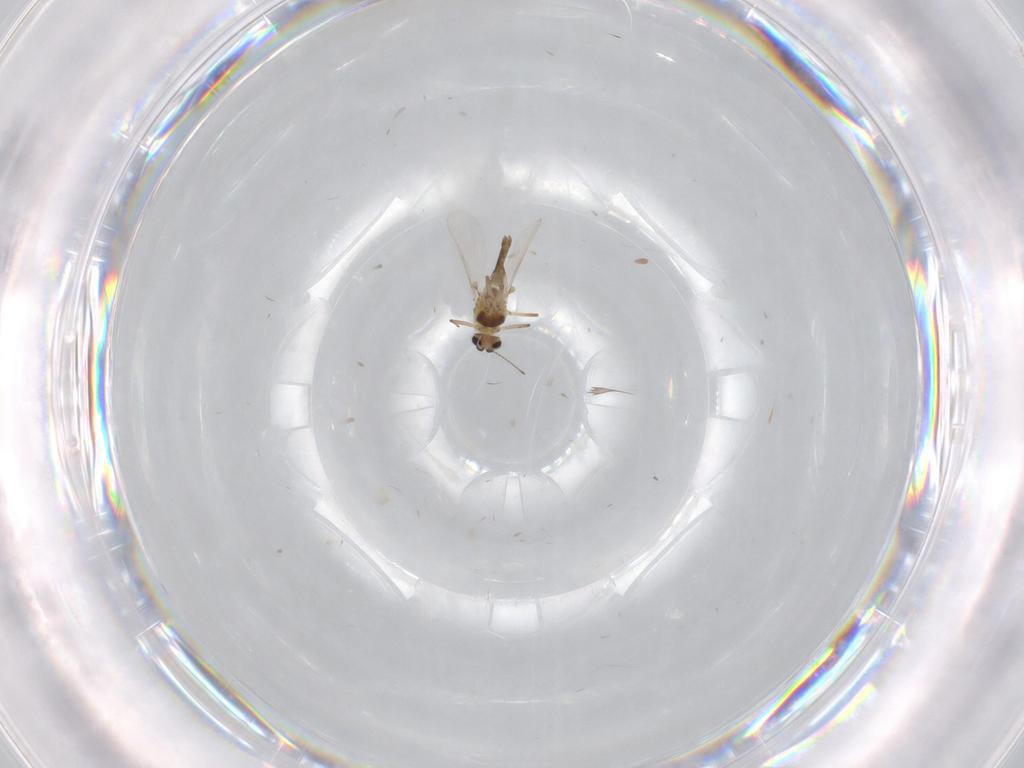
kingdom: Animalia
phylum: Arthropoda
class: Insecta
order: Diptera
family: Chironomidae
